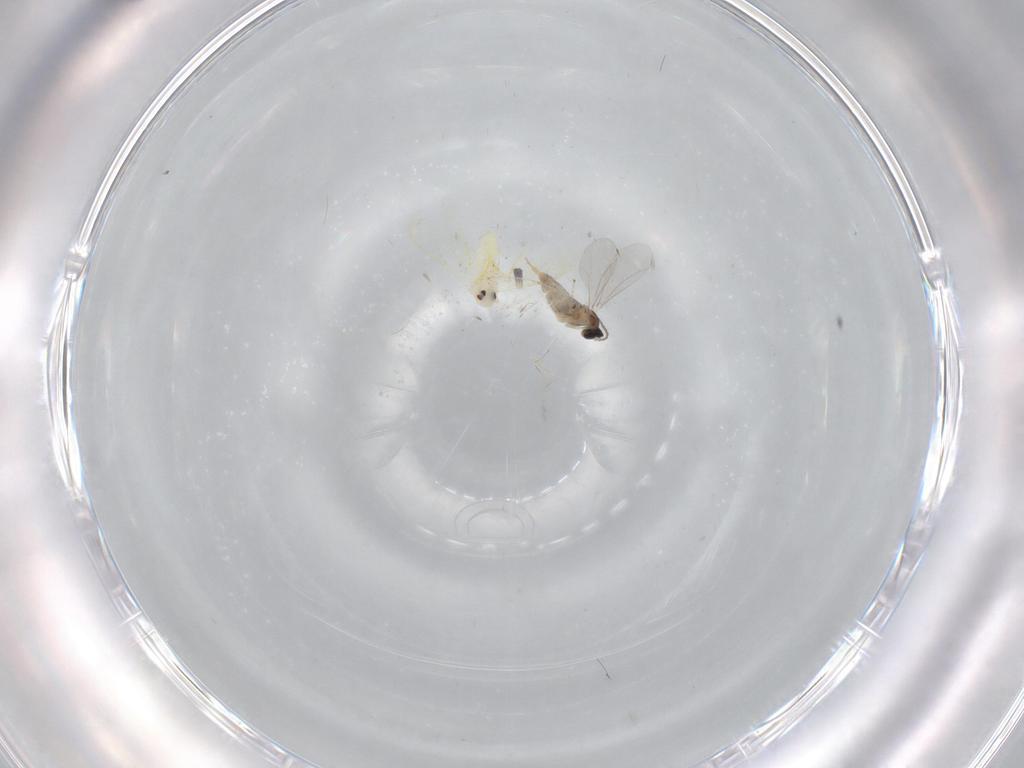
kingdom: Animalia
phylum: Arthropoda
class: Insecta
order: Diptera
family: Cecidomyiidae
